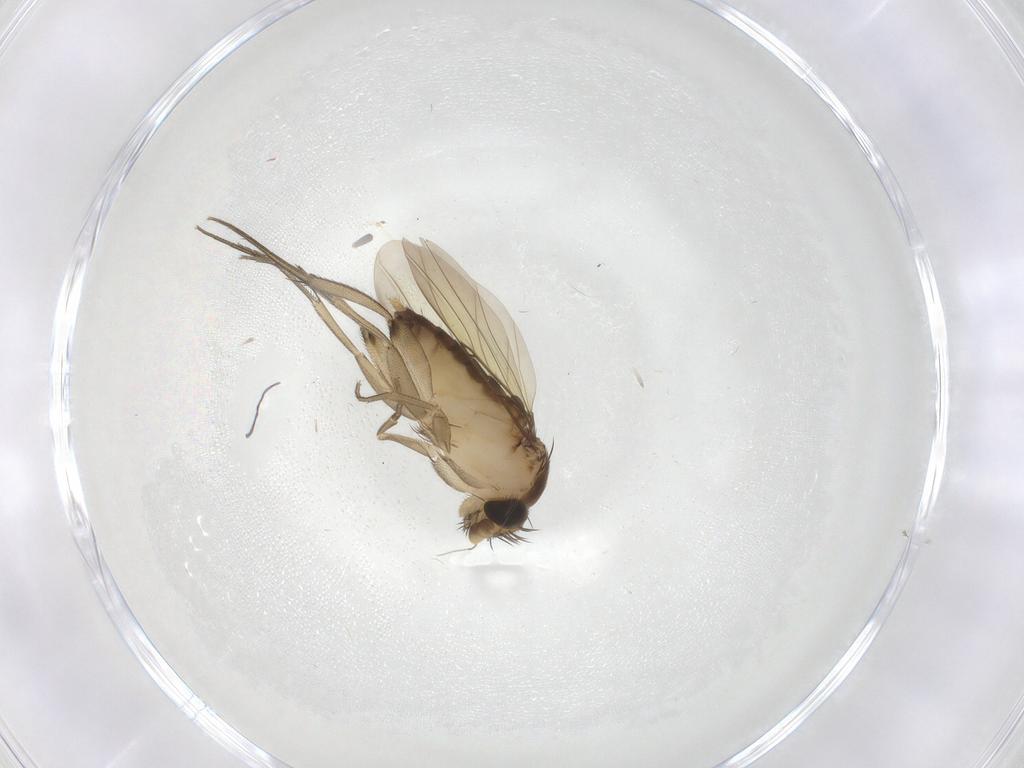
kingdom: Animalia
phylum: Arthropoda
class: Insecta
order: Diptera
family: Phoridae
